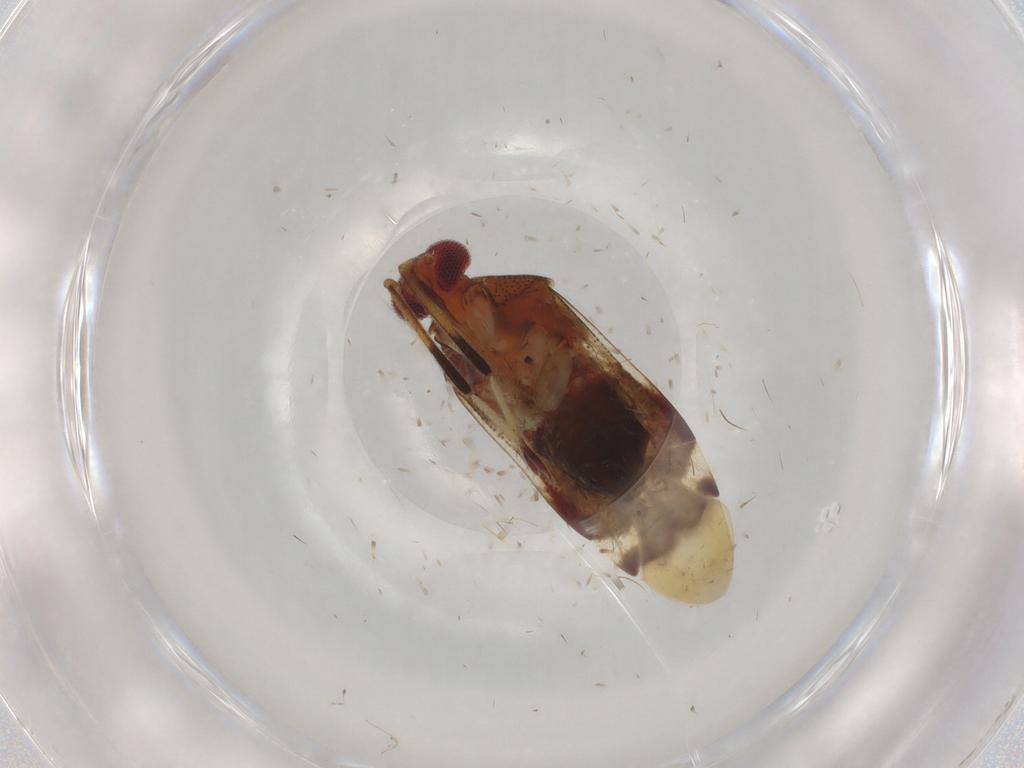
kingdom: Animalia
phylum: Arthropoda
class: Insecta
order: Hemiptera
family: Miridae
